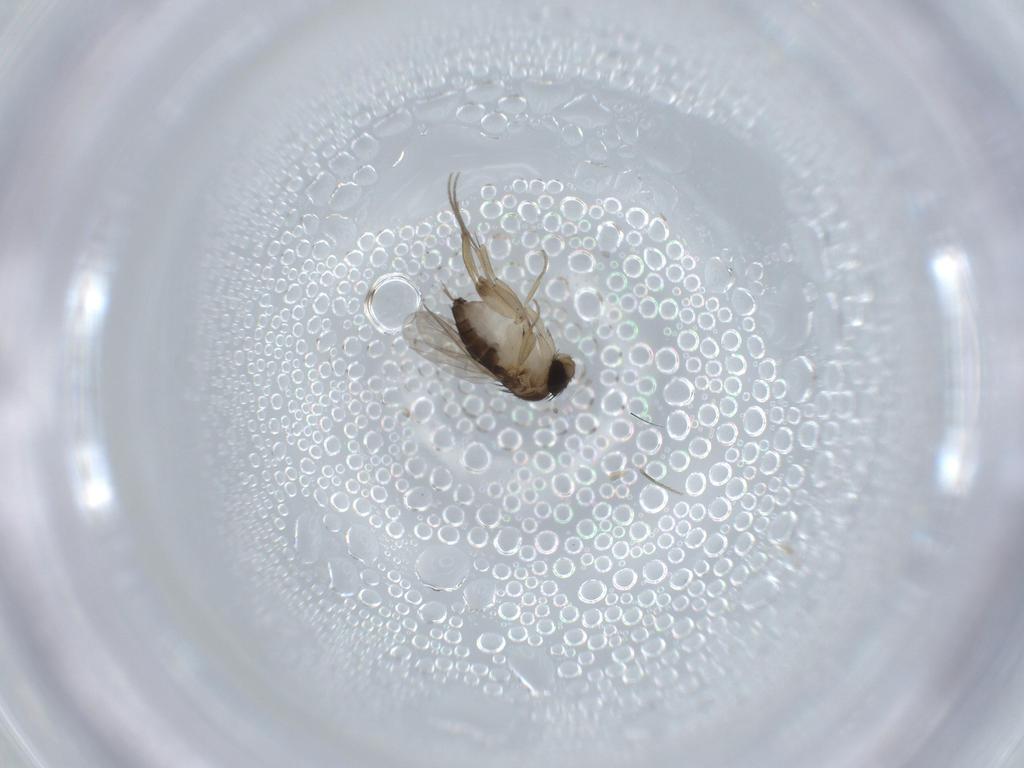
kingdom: Animalia
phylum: Arthropoda
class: Insecta
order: Diptera
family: Phoridae
